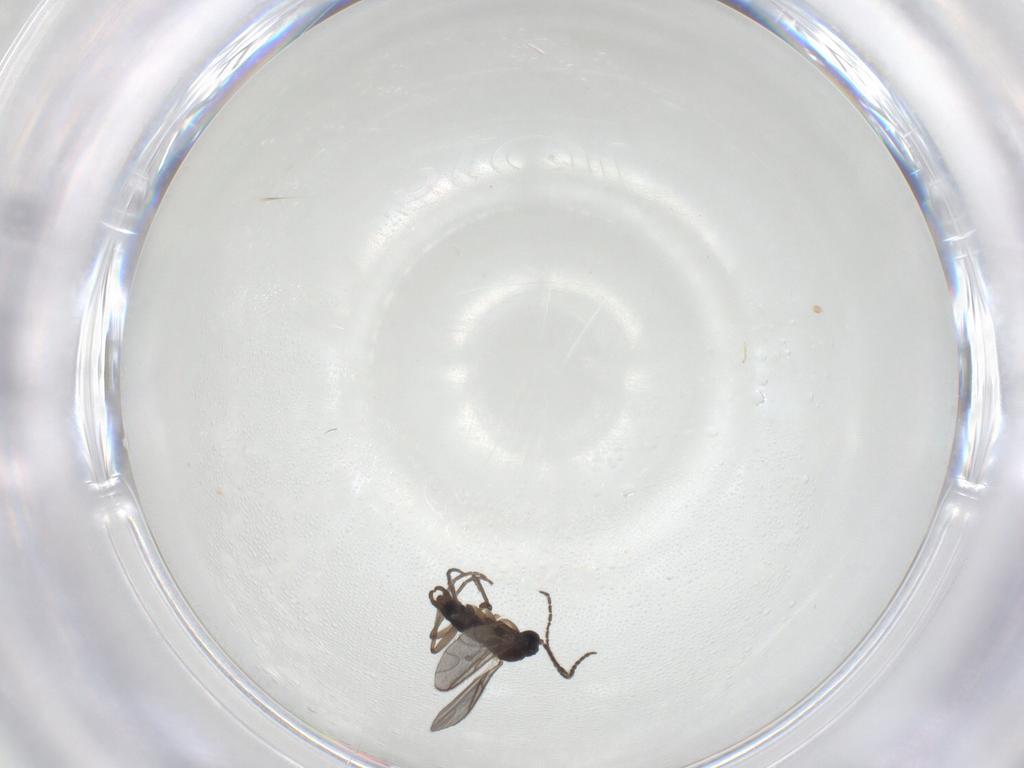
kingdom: Animalia
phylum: Arthropoda
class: Insecta
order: Diptera
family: Sciaridae
